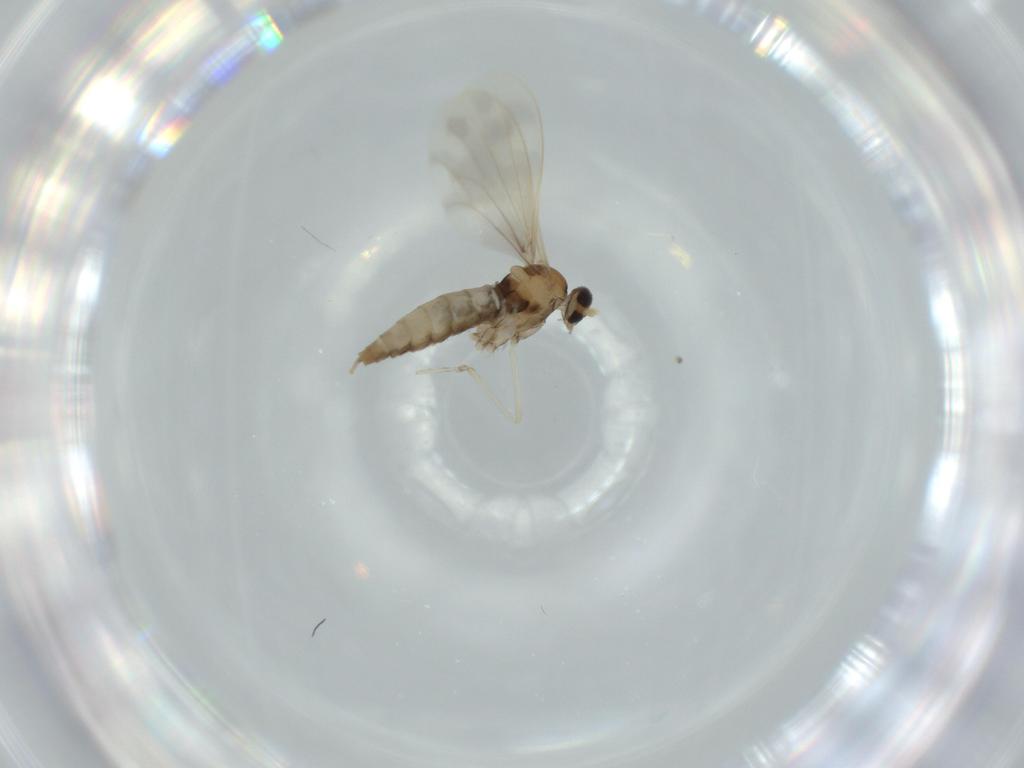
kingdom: Animalia
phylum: Arthropoda
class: Insecta
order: Diptera
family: Cecidomyiidae
